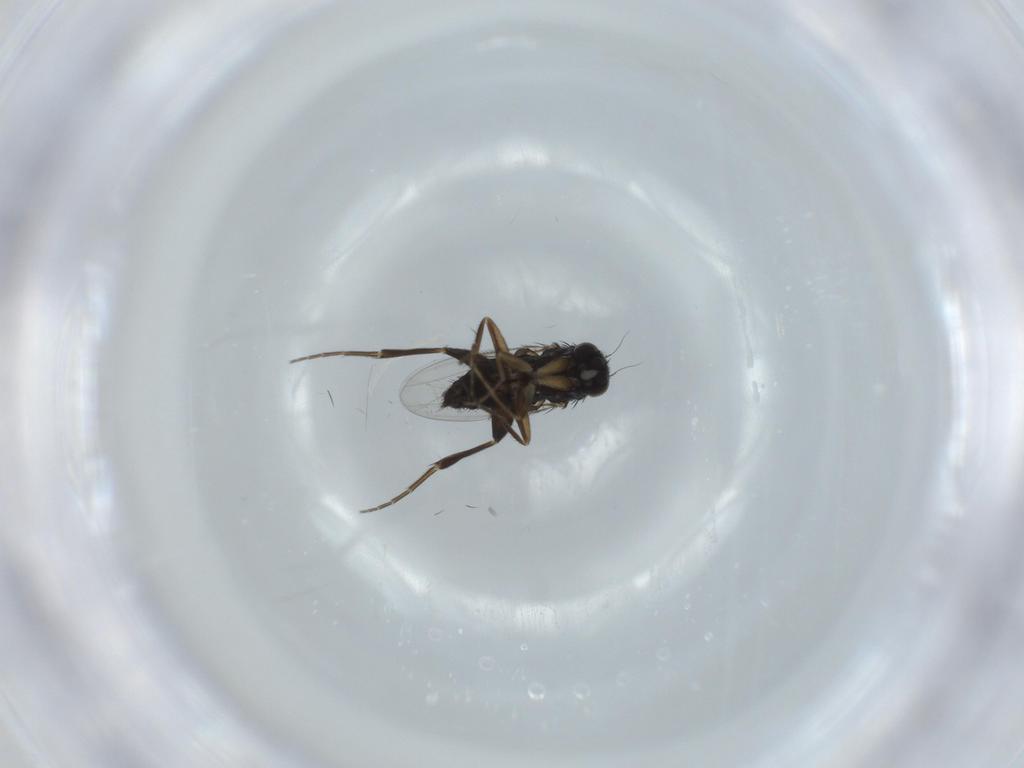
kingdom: Animalia
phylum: Arthropoda
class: Insecta
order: Diptera
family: Phoridae
